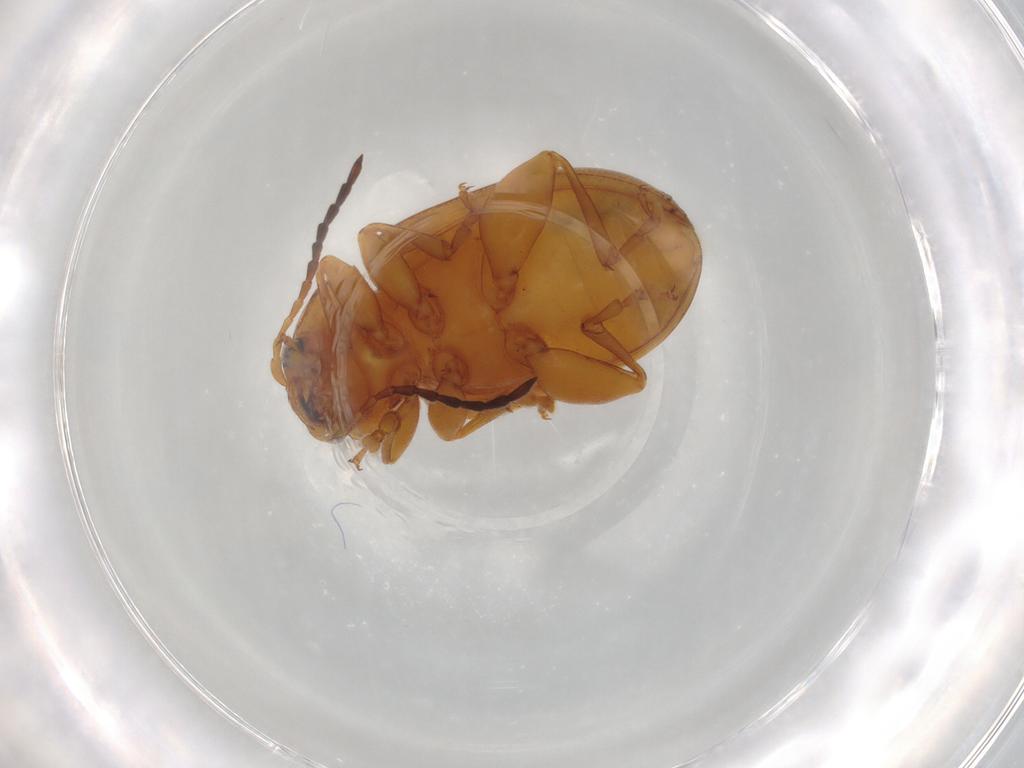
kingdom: Animalia
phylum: Arthropoda
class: Insecta
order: Coleoptera
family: Chrysomelidae
